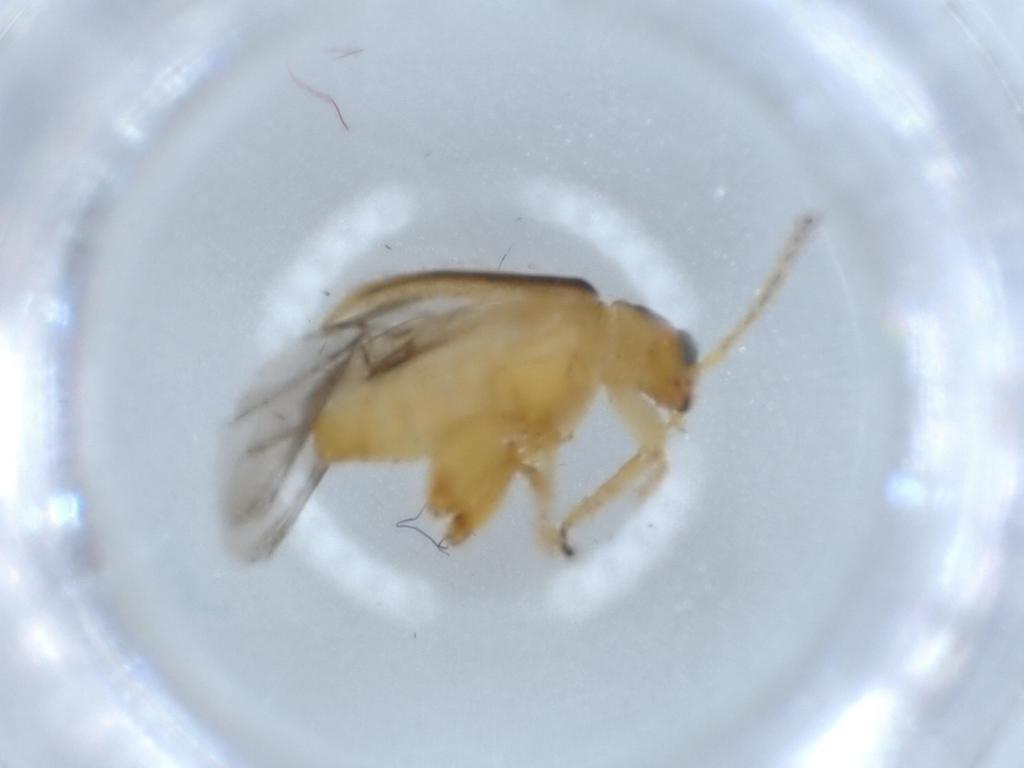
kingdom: Animalia
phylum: Arthropoda
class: Insecta
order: Coleoptera
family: Chrysomelidae
